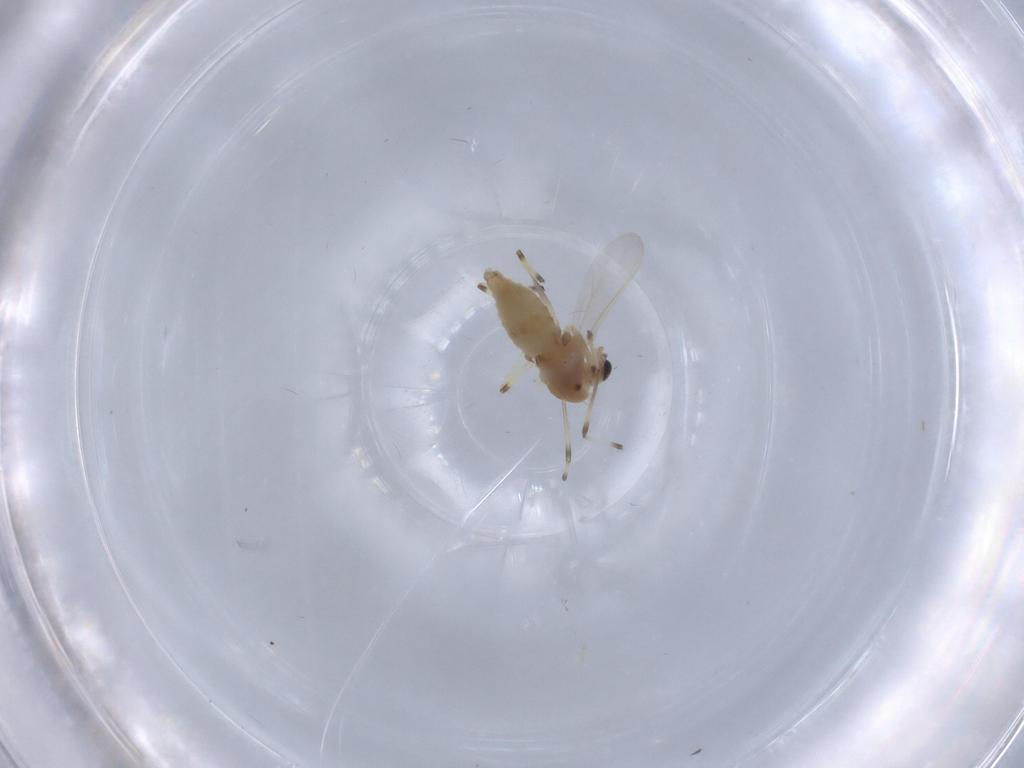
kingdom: Animalia
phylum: Arthropoda
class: Insecta
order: Diptera
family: Chironomidae
